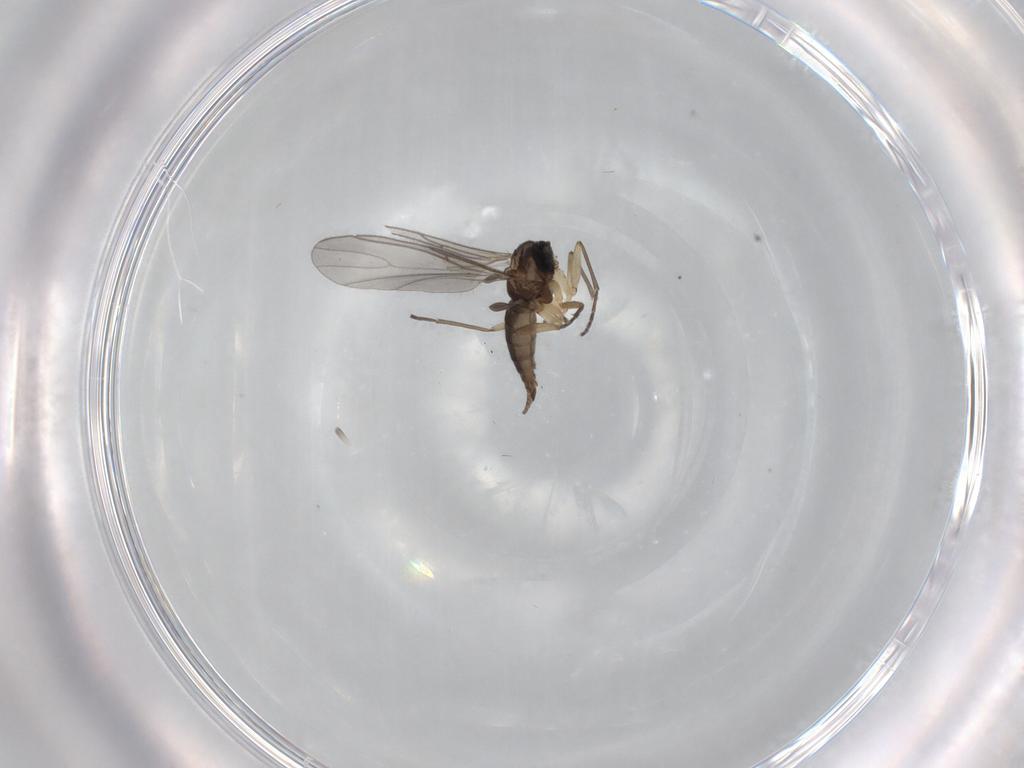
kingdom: Animalia
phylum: Arthropoda
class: Insecta
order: Diptera
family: Sciaridae
